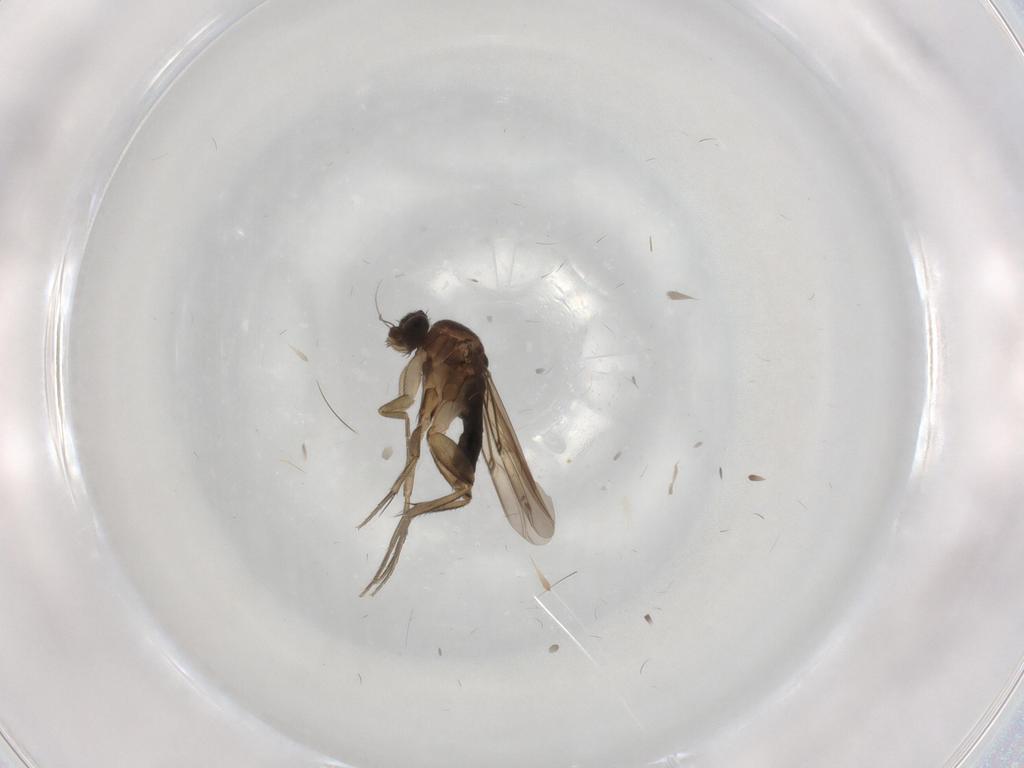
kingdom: Animalia
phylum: Arthropoda
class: Insecta
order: Diptera
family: Phoridae
